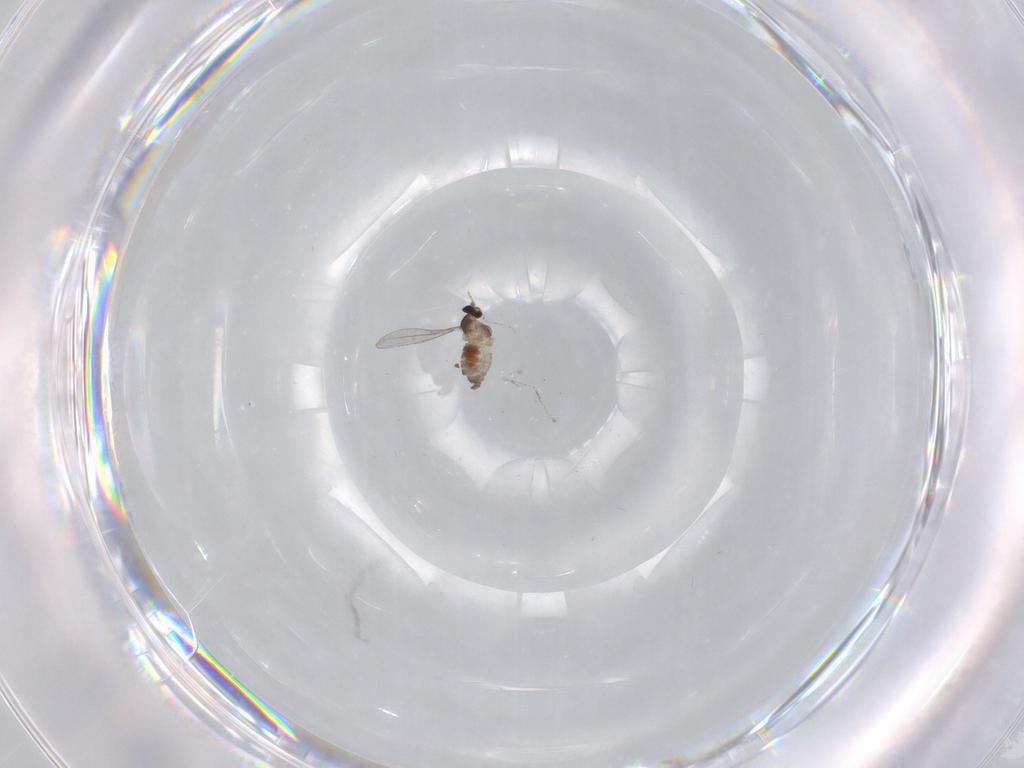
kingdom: Animalia
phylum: Arthropoda
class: Insecta
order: Diptera
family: Cecidomyiidae
